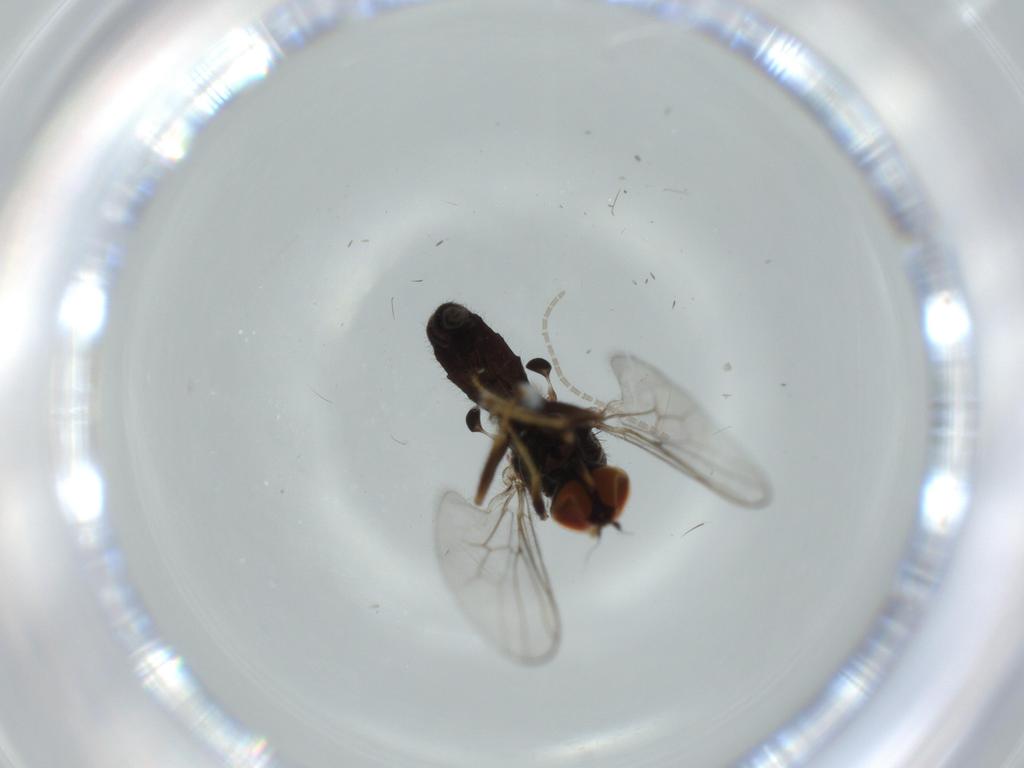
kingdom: Animalia
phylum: Arthropoda
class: Insecta
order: Diptera
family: Hybotidae
